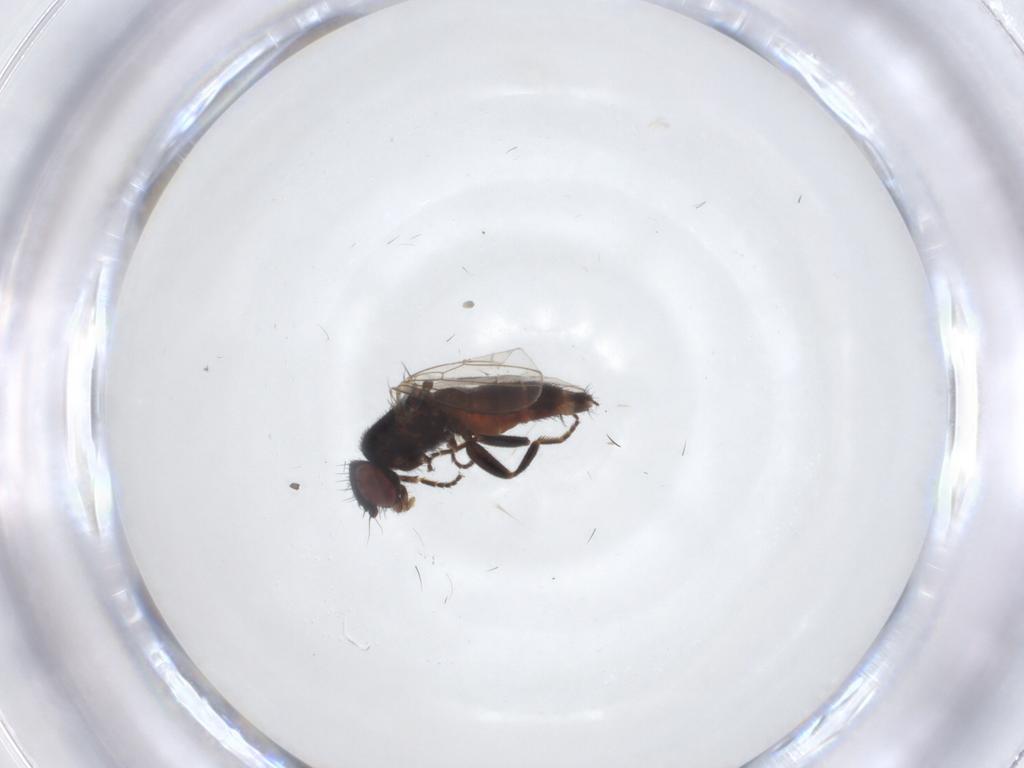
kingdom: Animalia
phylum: Arthropoda
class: Insecta
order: Diptera
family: Milichiidae
